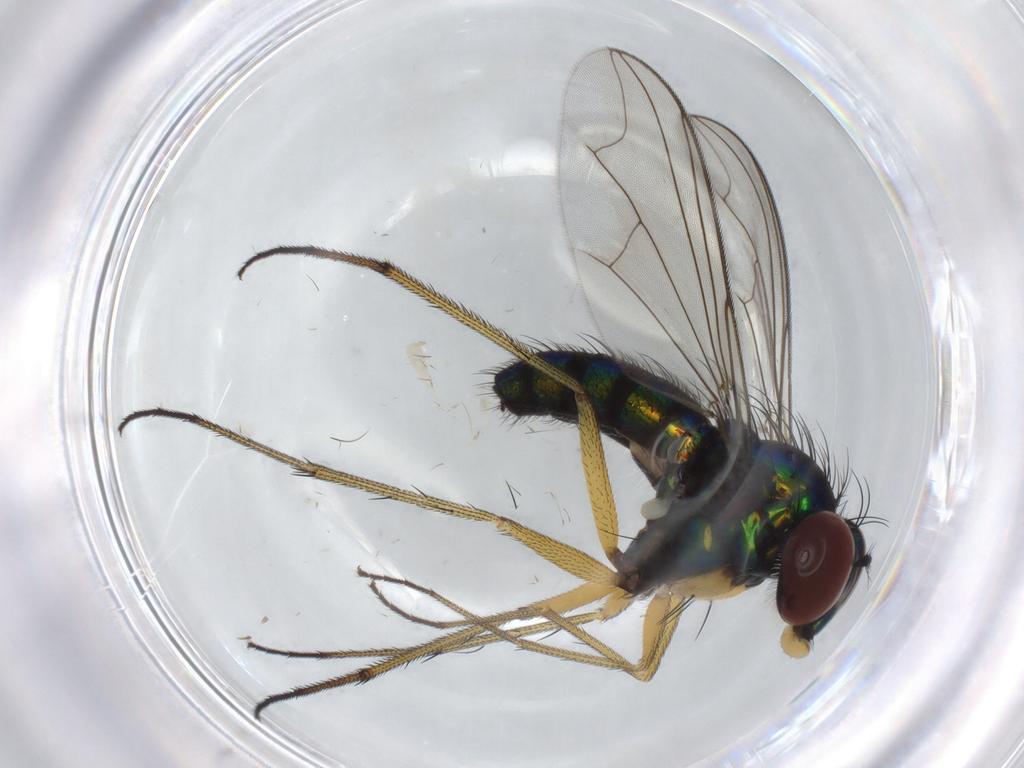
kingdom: Animalia
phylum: Arthropoda
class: Insecta
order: Diptera
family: Dolichopodidae
